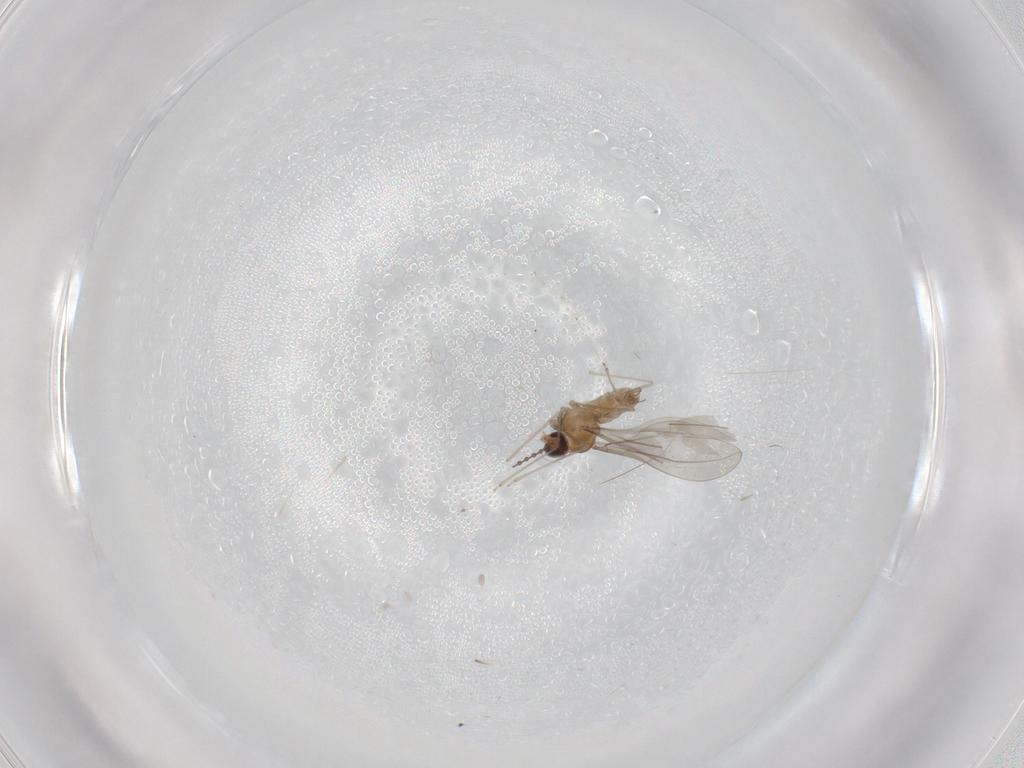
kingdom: Animalia
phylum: Arthropoda
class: Insecta
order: Diptera
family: Cecidomyiidae
